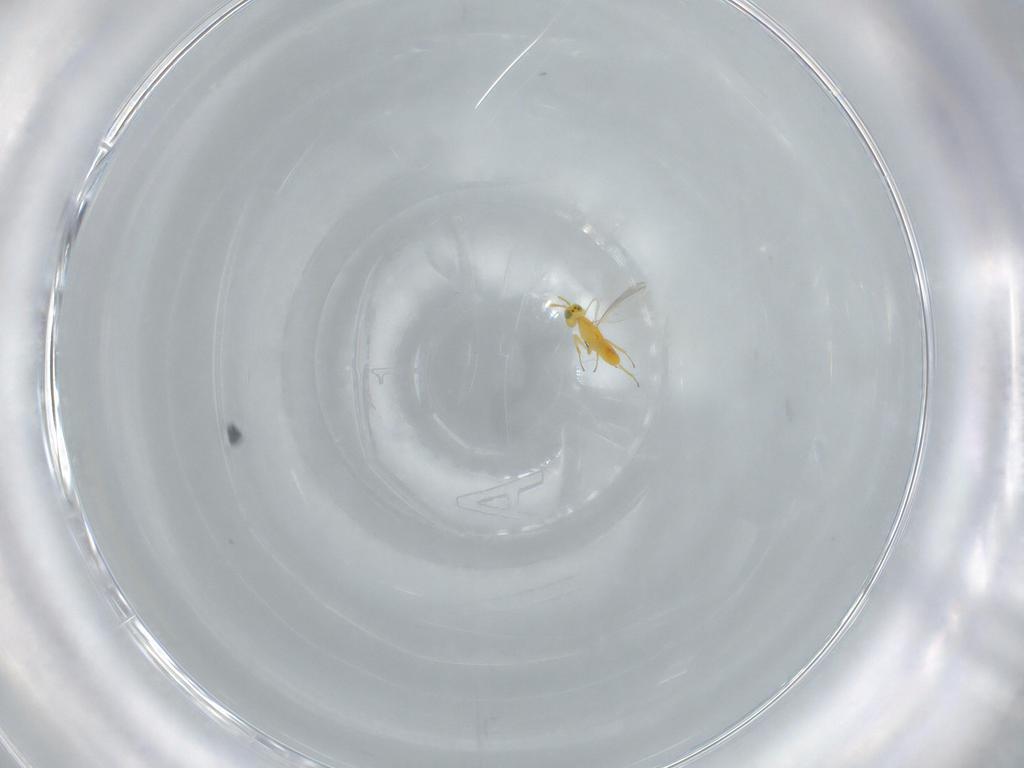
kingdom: Animalia
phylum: Arthropoda
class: Insecta
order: Hymenoptera
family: Aphelinidae
